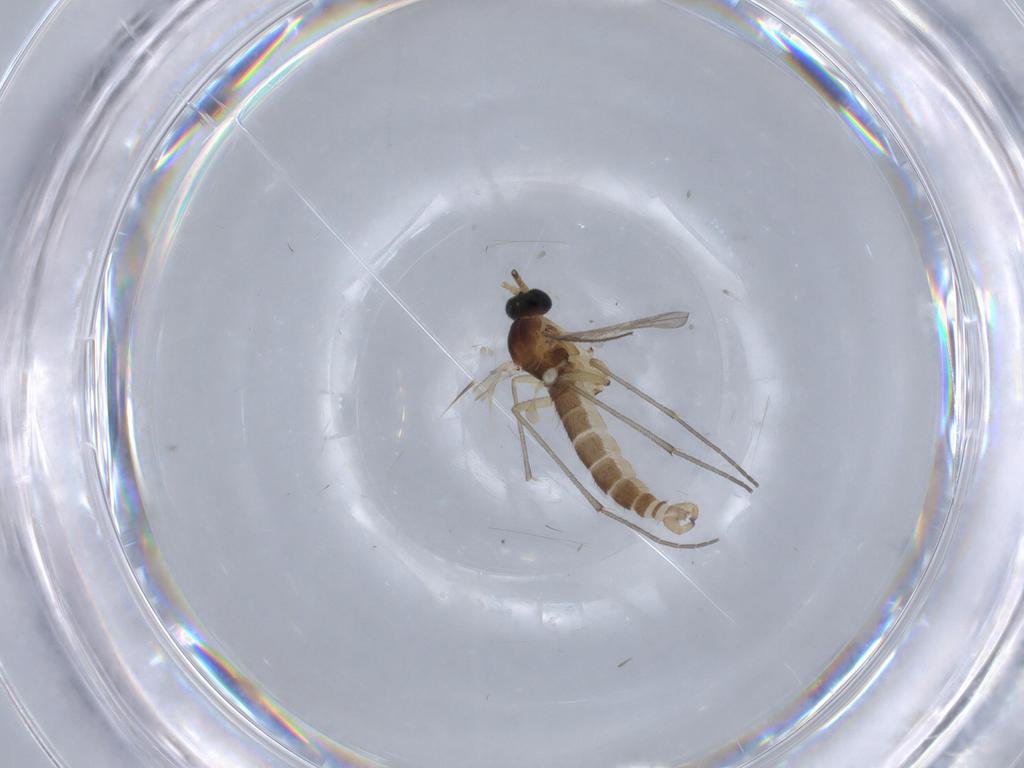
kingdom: Animalia
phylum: Arthropoda
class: Insecta
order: Diptera
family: Sciaridae
